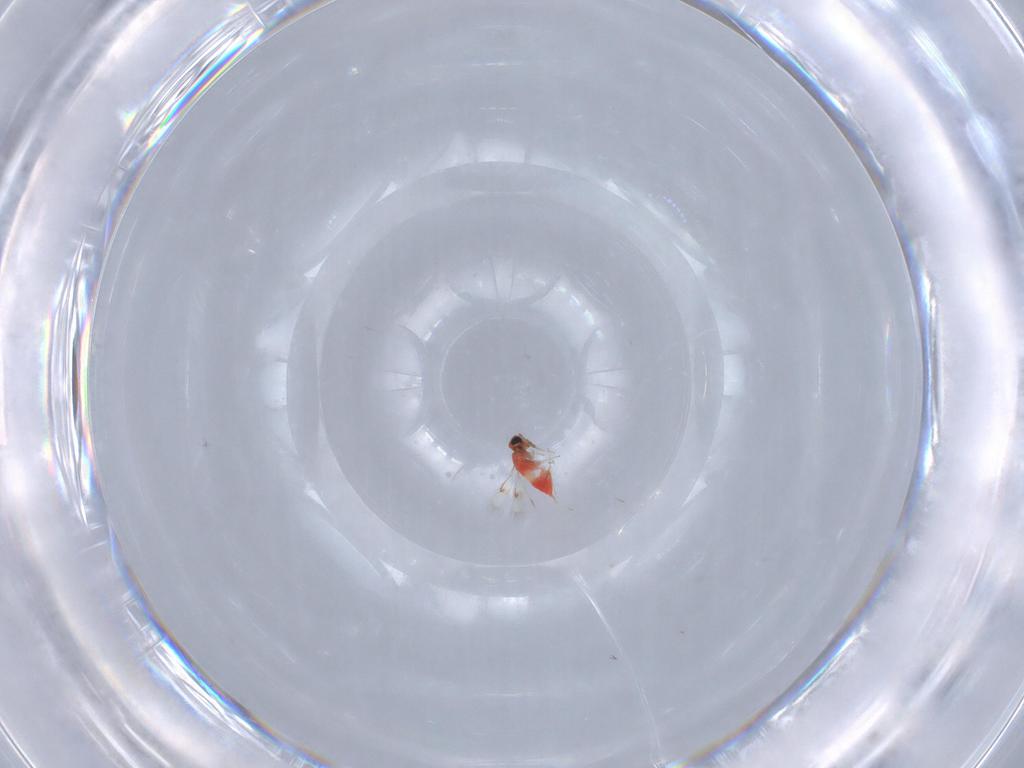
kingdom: Animalia
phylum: Arthropoda
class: Insecta
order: Hymenoptera
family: Trichogrammatidae
